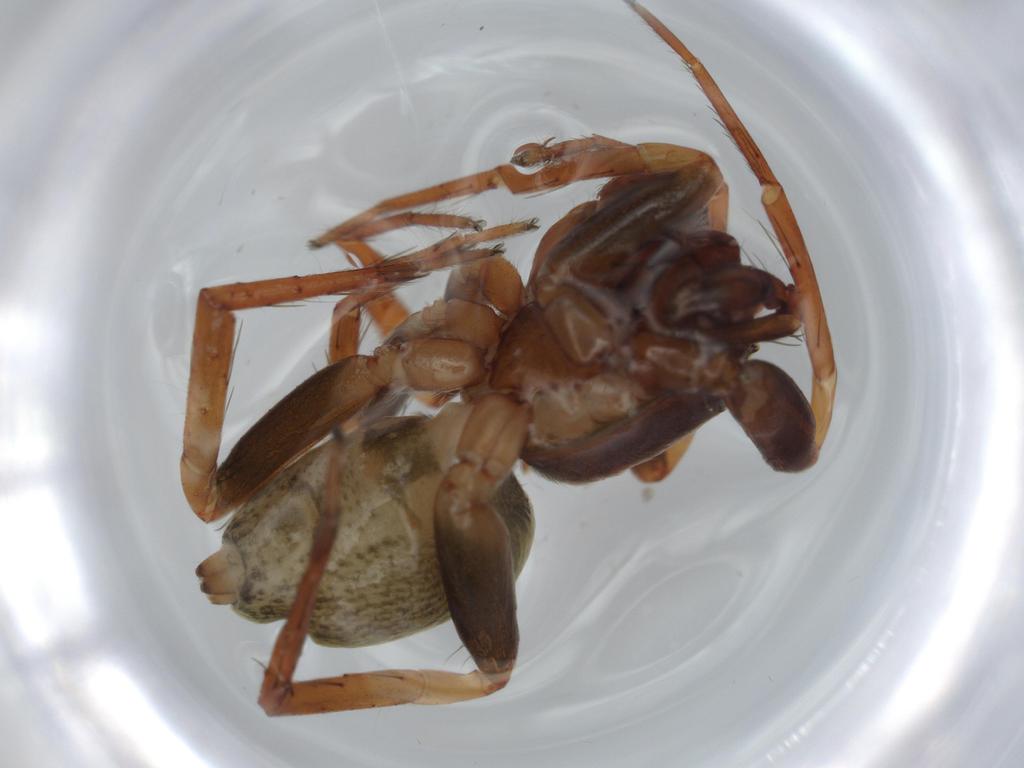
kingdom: Animalia
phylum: Arthropoda
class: Arachnida
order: Araneae
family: Anyphaenidae
